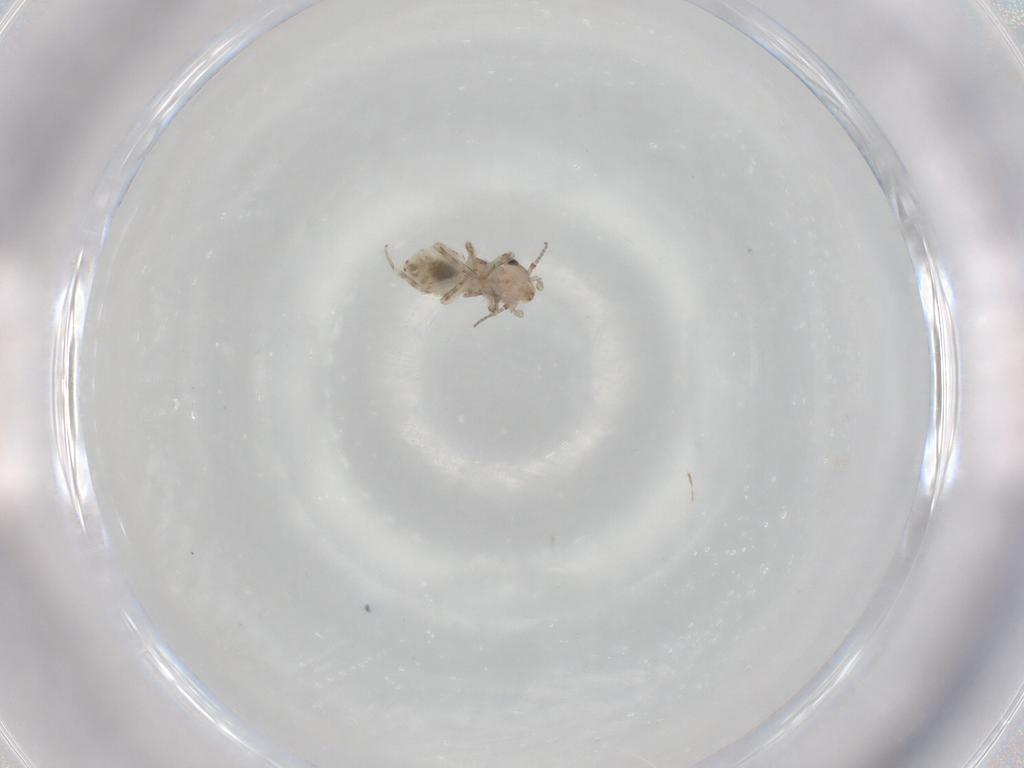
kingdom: Animalia
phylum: Arthropoda
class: Insecta
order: Psocodea
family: Lepidopsocidae
